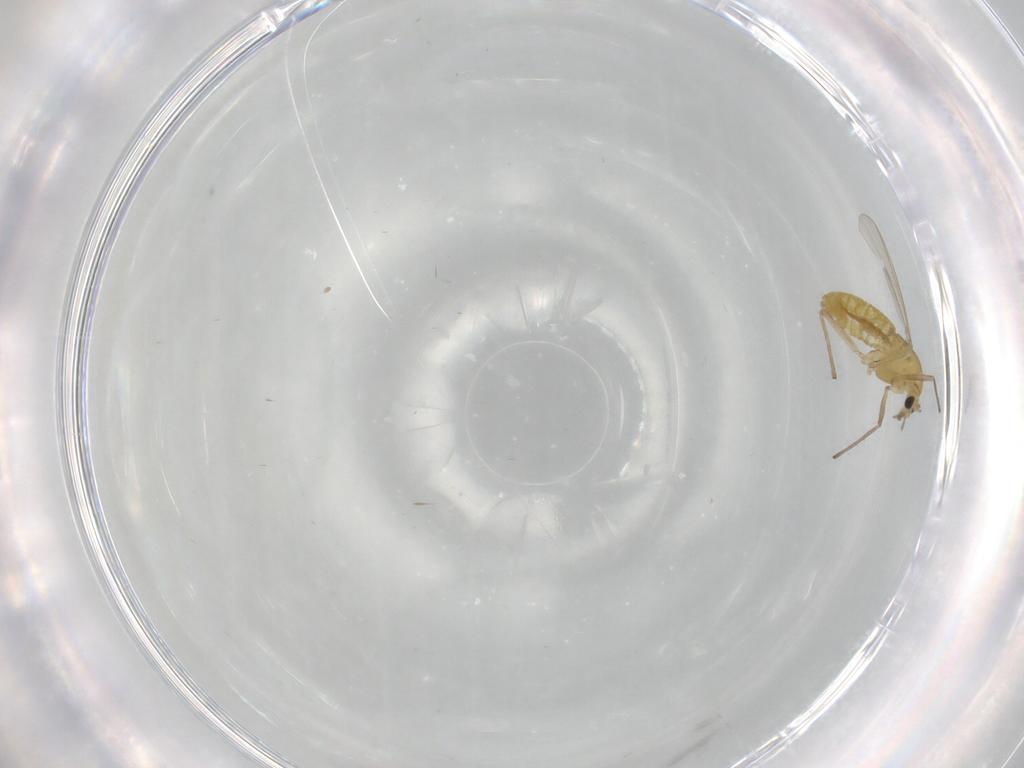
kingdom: Animalia
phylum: Arthropoda
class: Insecta
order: Diptera
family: Chironomidae
